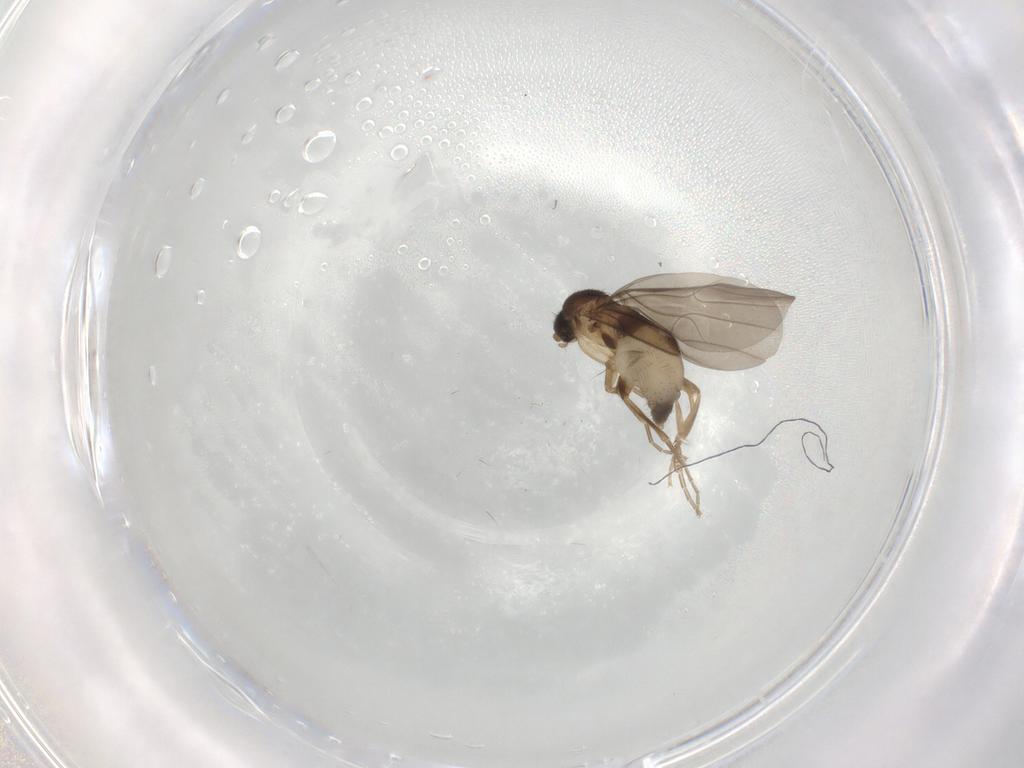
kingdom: Animalia
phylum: Arthropoda
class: Insecta
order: Diptera
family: Phoridae
